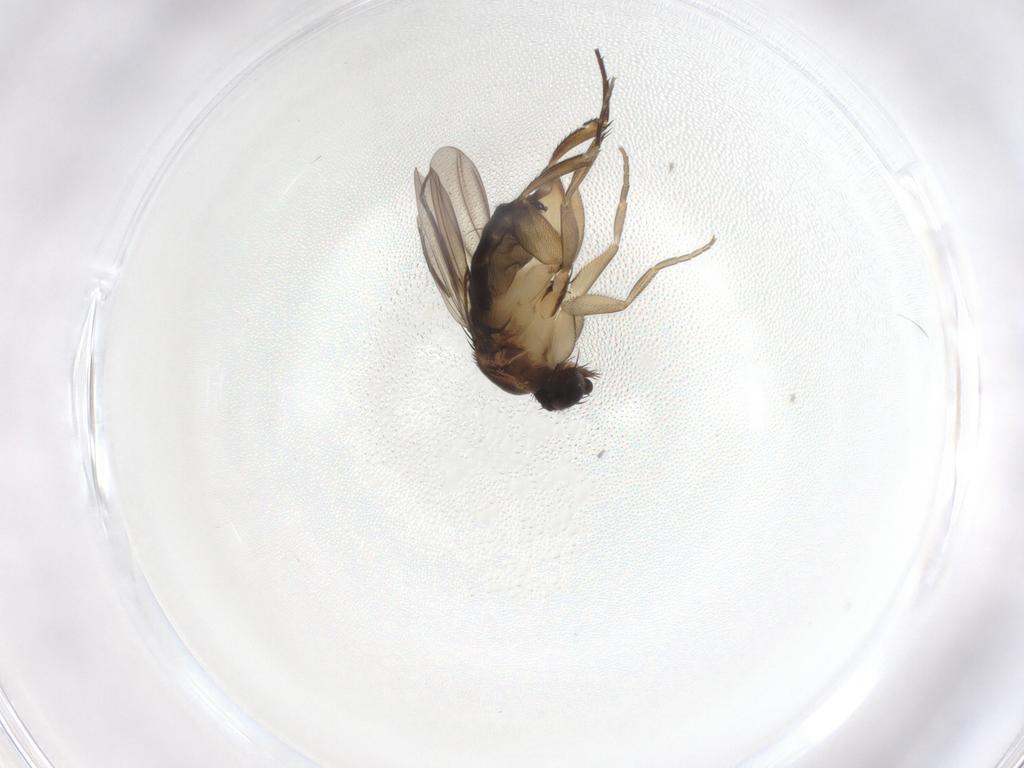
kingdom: Animalia
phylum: Arthropoda
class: Insecta
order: Diptera
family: Phoridae
